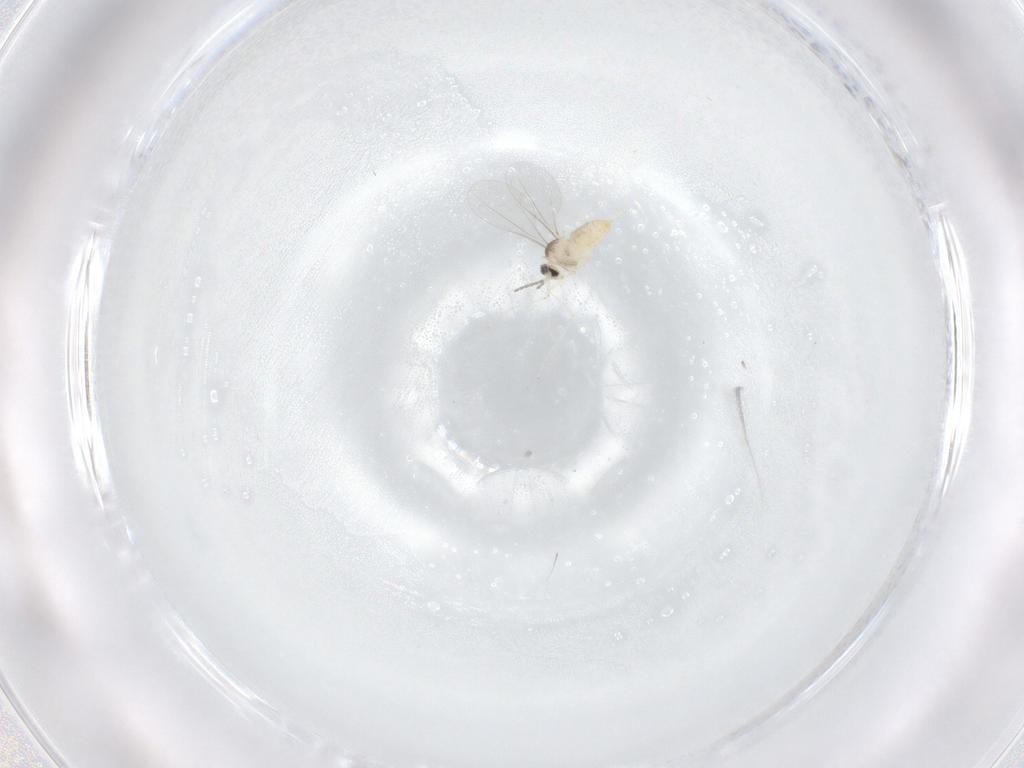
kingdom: Animalia
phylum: Arthropoda
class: Insecta
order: Diptera
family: Cecidomyiidae
